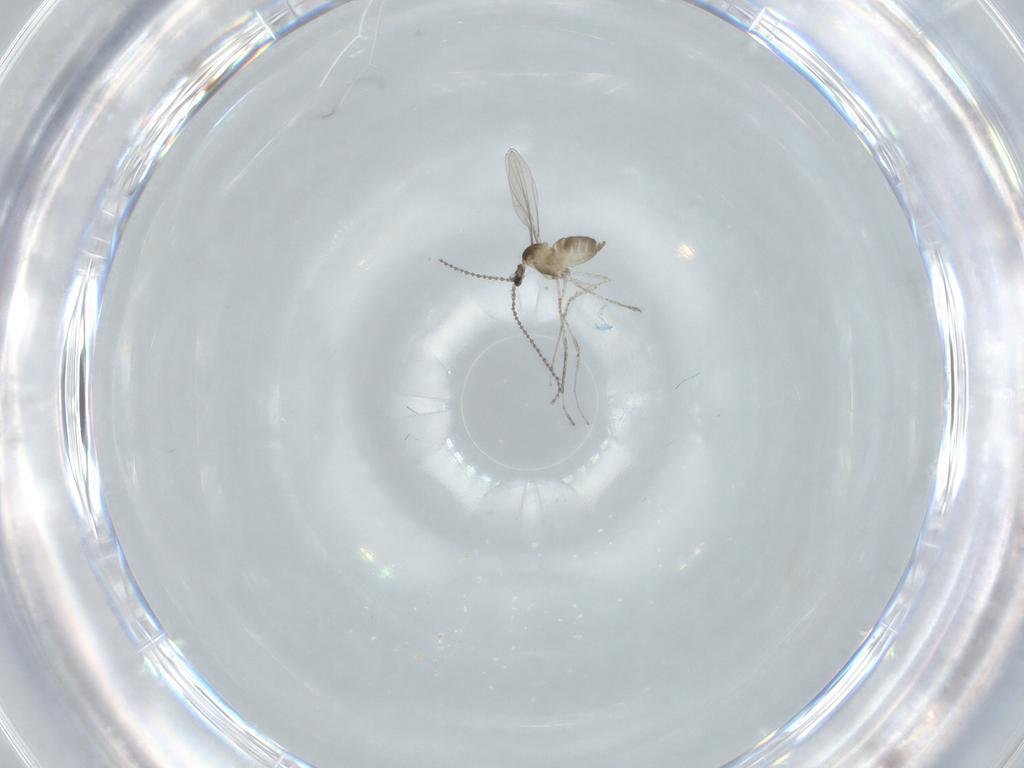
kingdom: Animalia
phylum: Arthropoda
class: Insecta
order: Diptera
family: Cecidomyiidae
